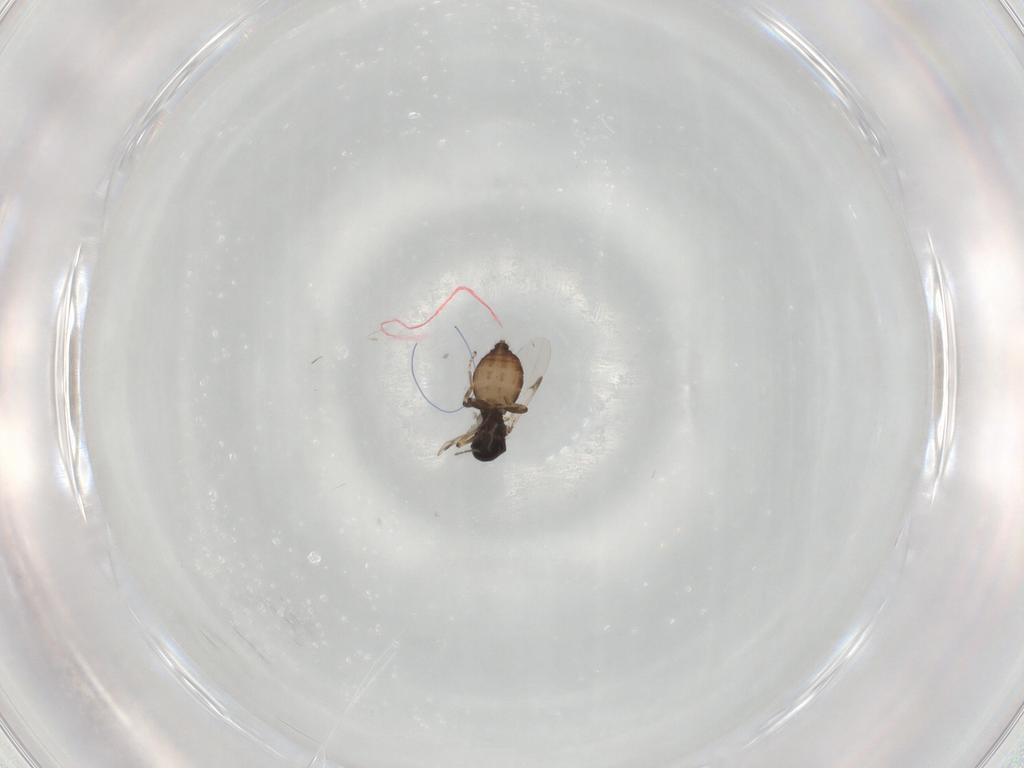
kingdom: Animalia
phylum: Arthropoda
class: Insecta
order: Diptera
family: Ceratopogonidae
